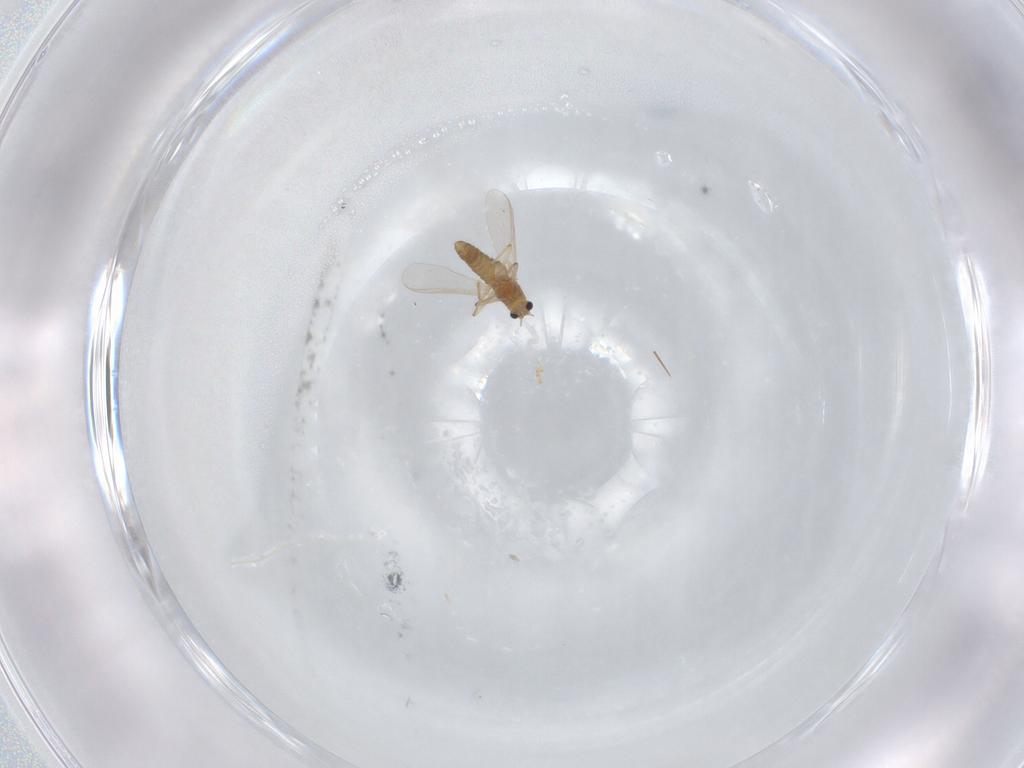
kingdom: Animalia
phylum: Arthropoda
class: Insecta
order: Diptera
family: Chironomidae
